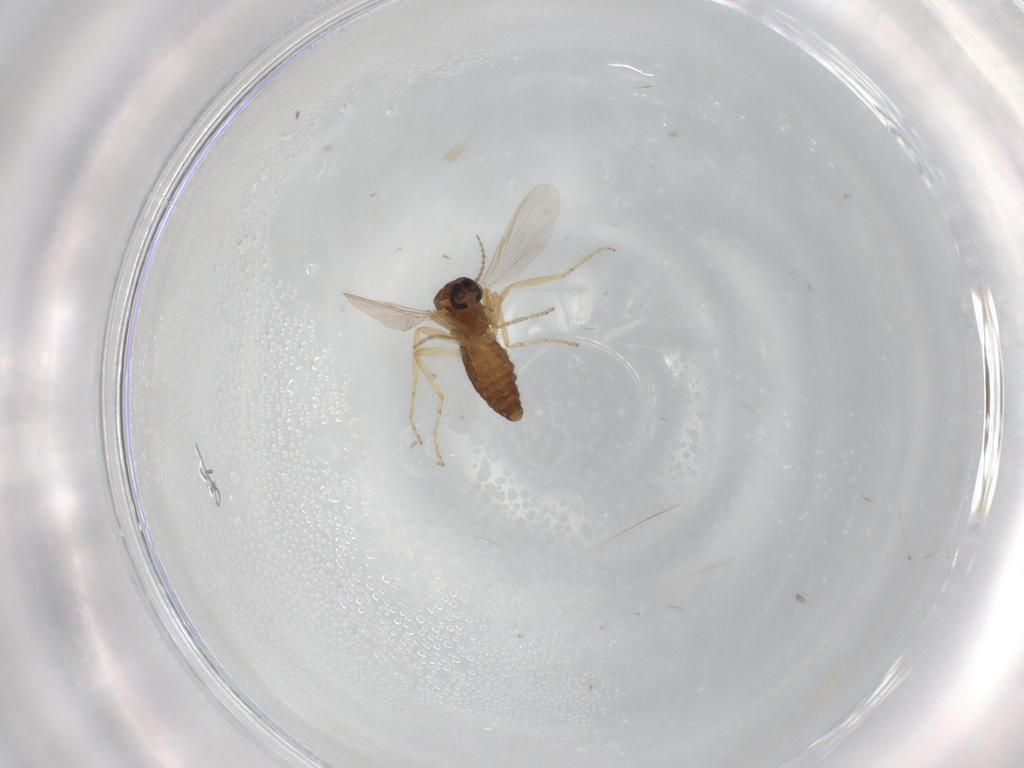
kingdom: Animalia
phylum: Arthropoda
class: Insecta
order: Diptera
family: Ceratopogonidae
